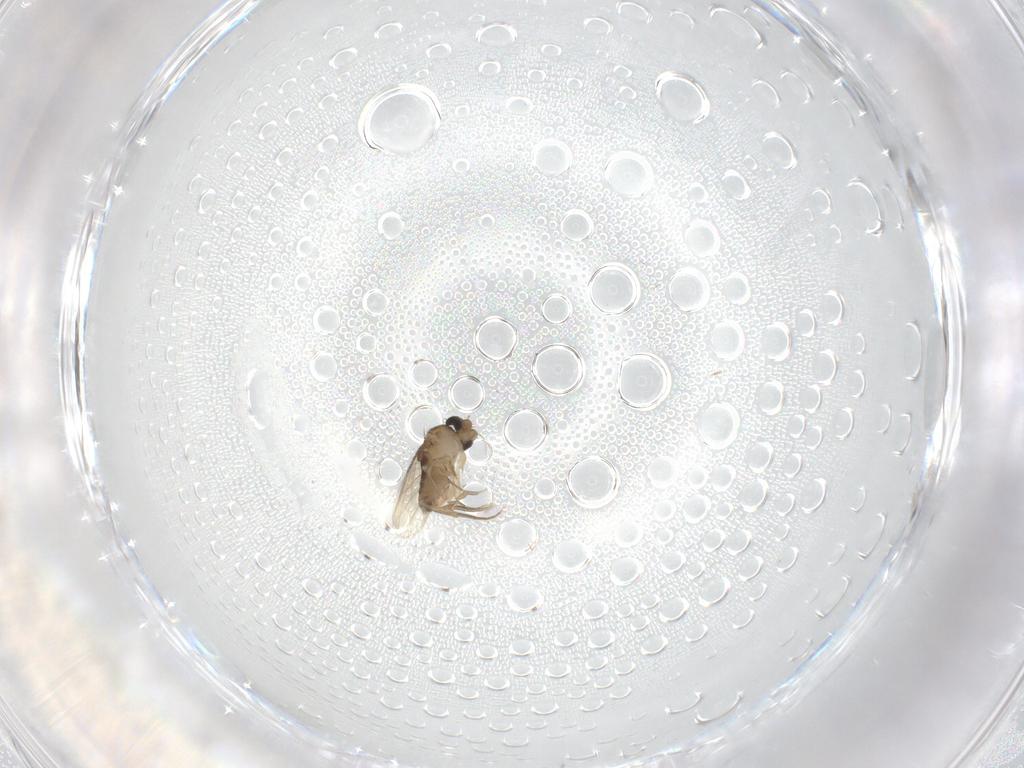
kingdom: Animalia
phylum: Arthropoda
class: Insecta
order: Diptera
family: Phoridae
